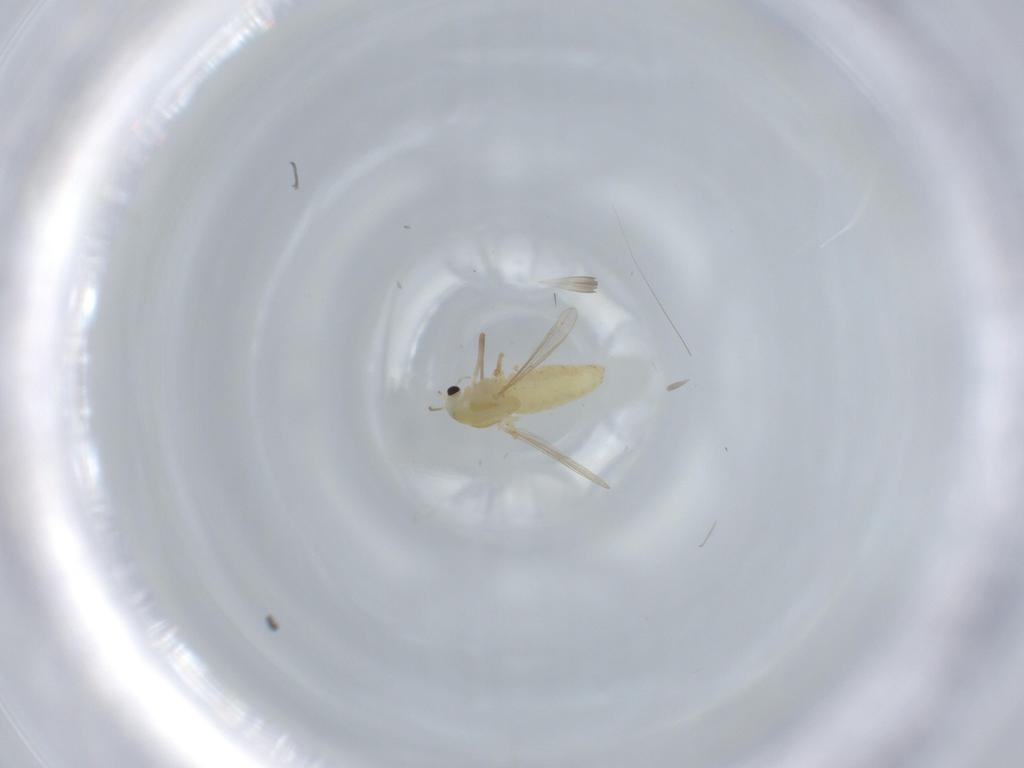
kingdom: Animalia
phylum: Arthropoda
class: Insecta
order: Diptera
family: Chironomidae
